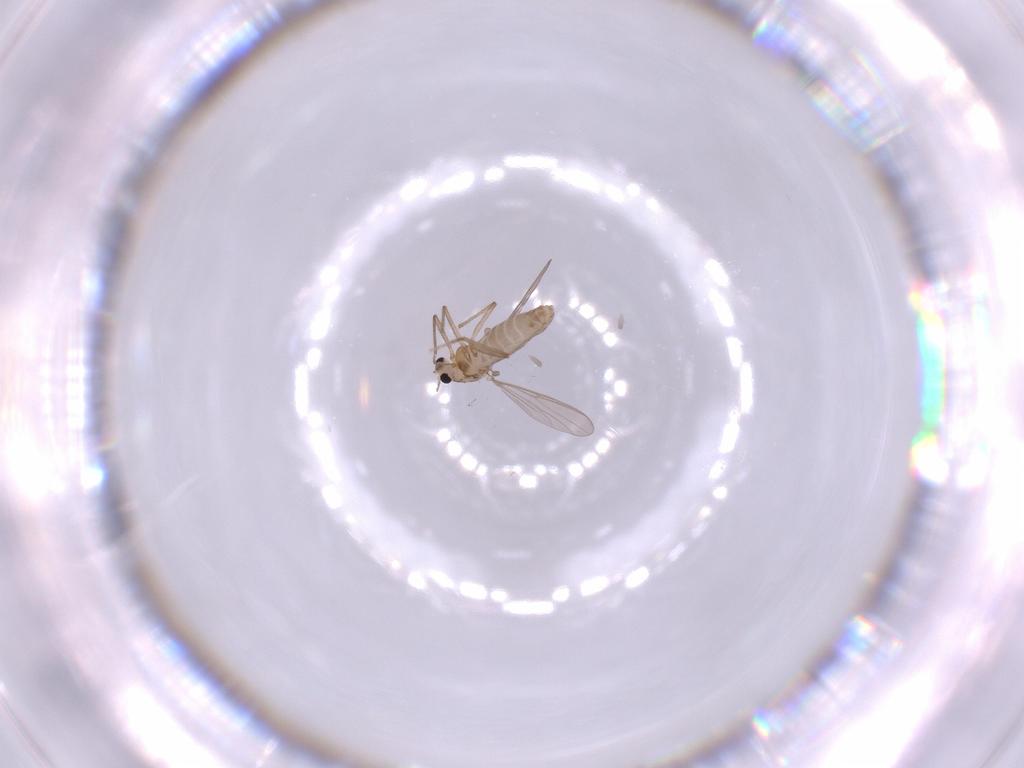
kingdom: Animalia
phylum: Arthropoda
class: Insecta
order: Diptera
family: Chironomidae
